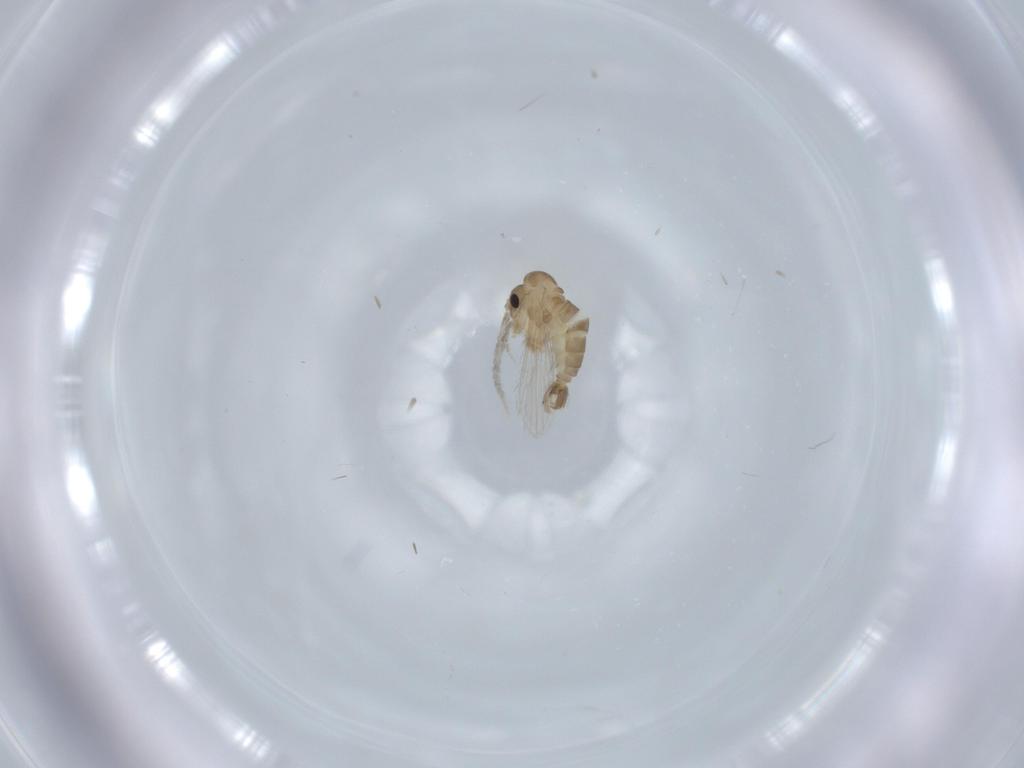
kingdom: Animalia
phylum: Arthropoda
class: Insecta
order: Diptera
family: Psychodidae
